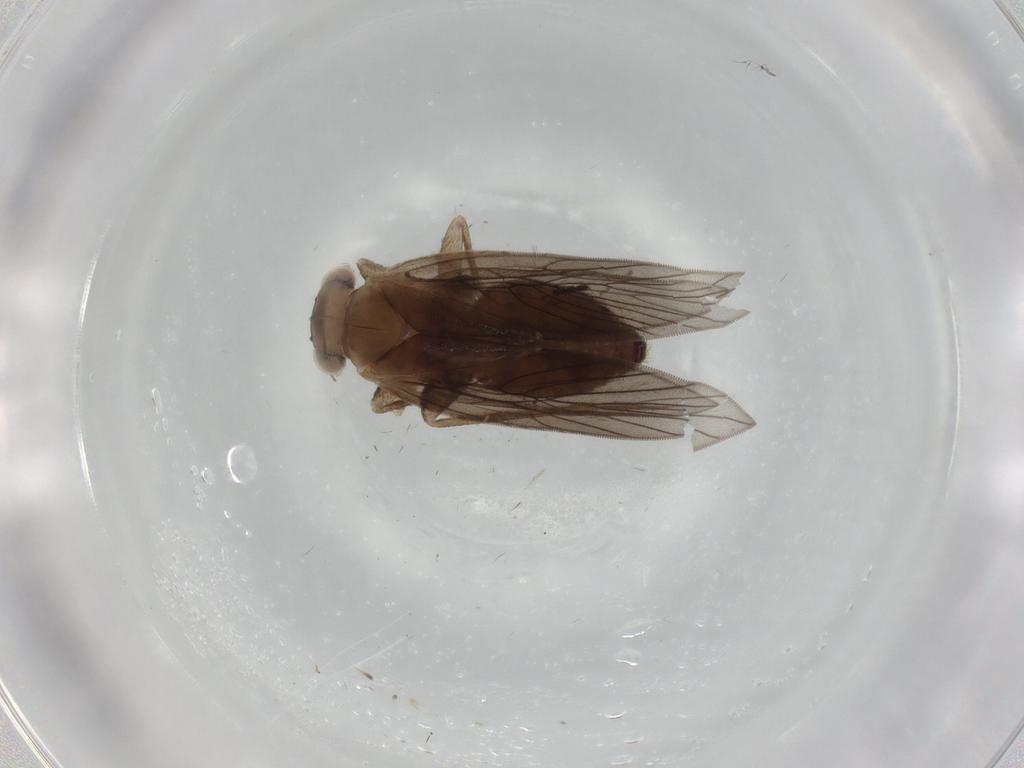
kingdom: Animalia
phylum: Arthropoda
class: Insecta
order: Psocodea
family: Lepidopsocidae
